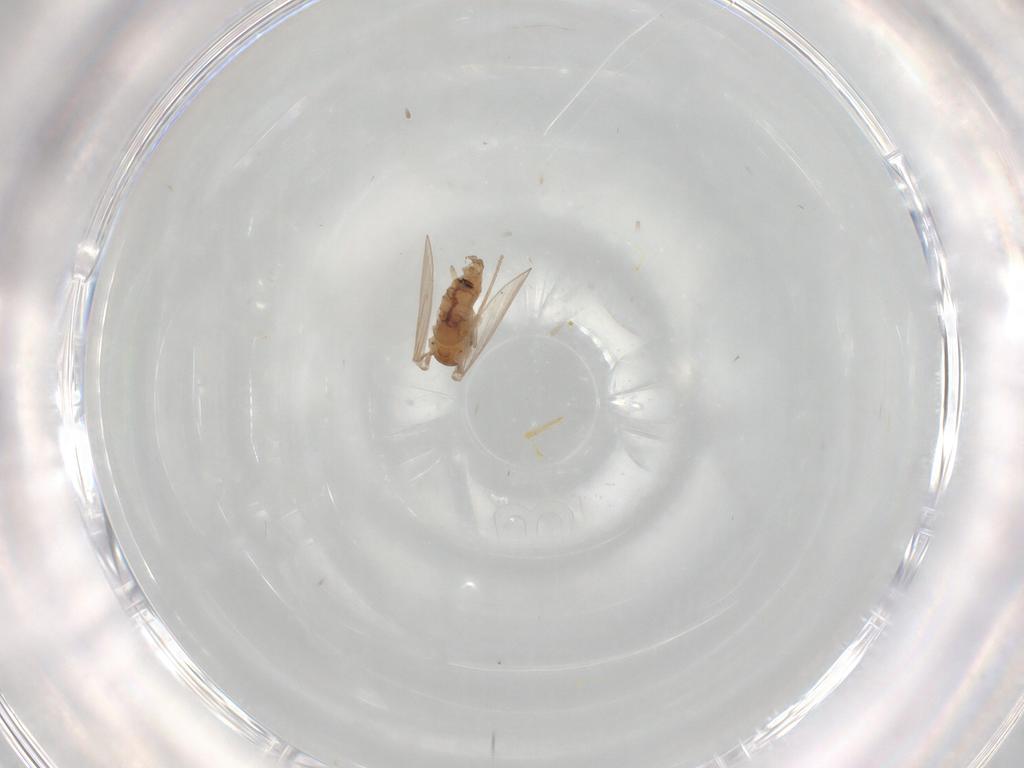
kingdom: Animalia
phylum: Arthropoda
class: Insecta
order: Diptera
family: Psychodidae
